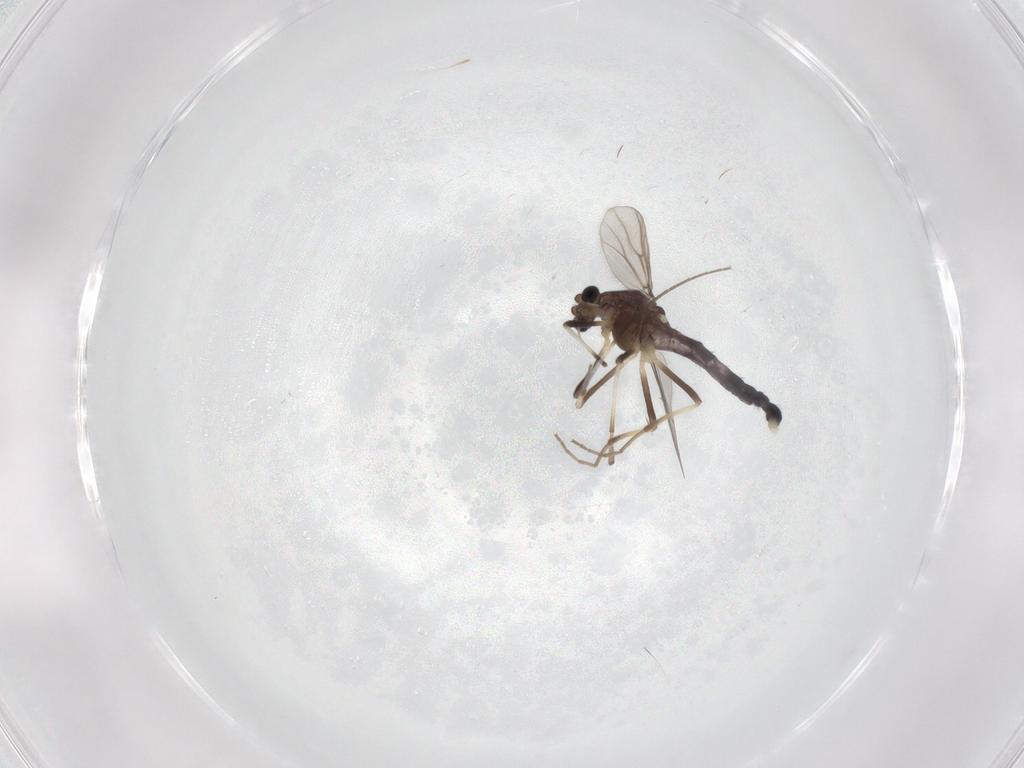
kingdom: Animalia
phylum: Arthropoda
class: Insecta
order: Diptera
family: Chironomidae
